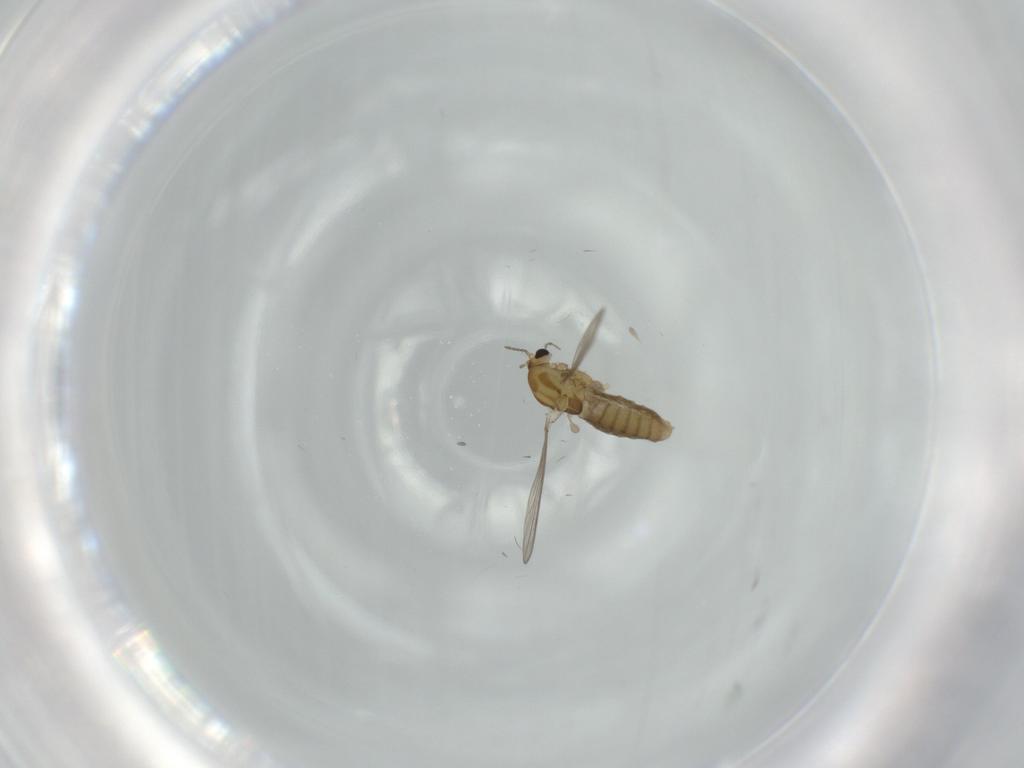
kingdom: Animalia
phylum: Arthropoda
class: Insecta
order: Diptera
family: Chironomidae
